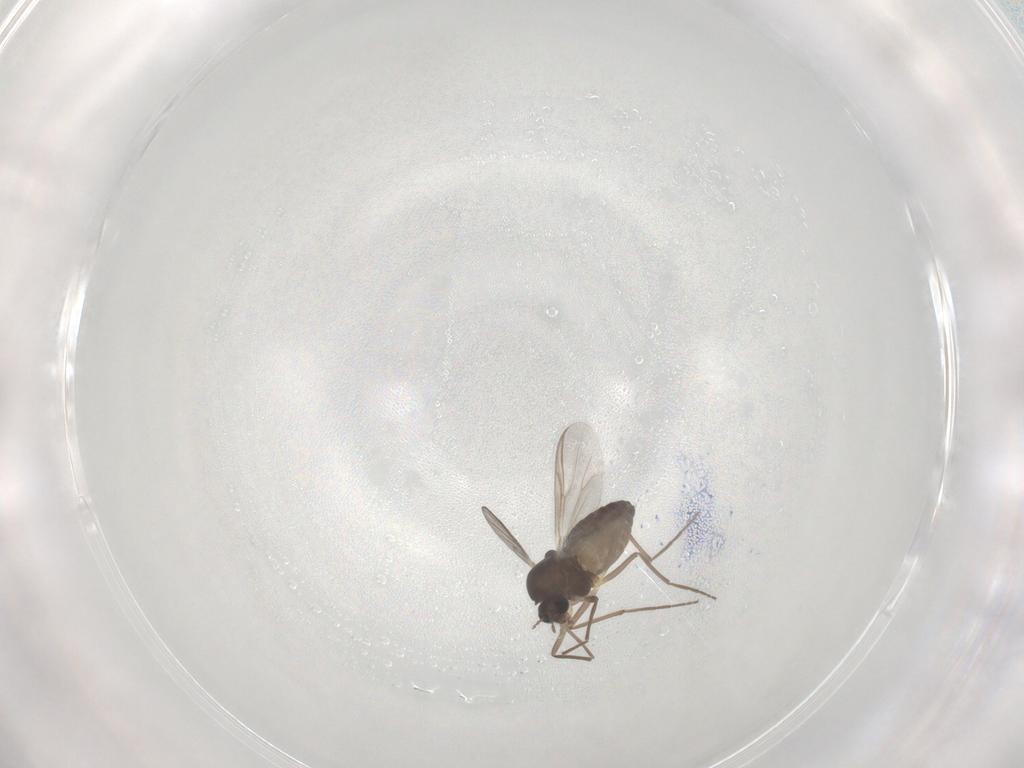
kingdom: Animalia
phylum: Arthropoda
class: Insecta
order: Diptera
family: Chironomidae
